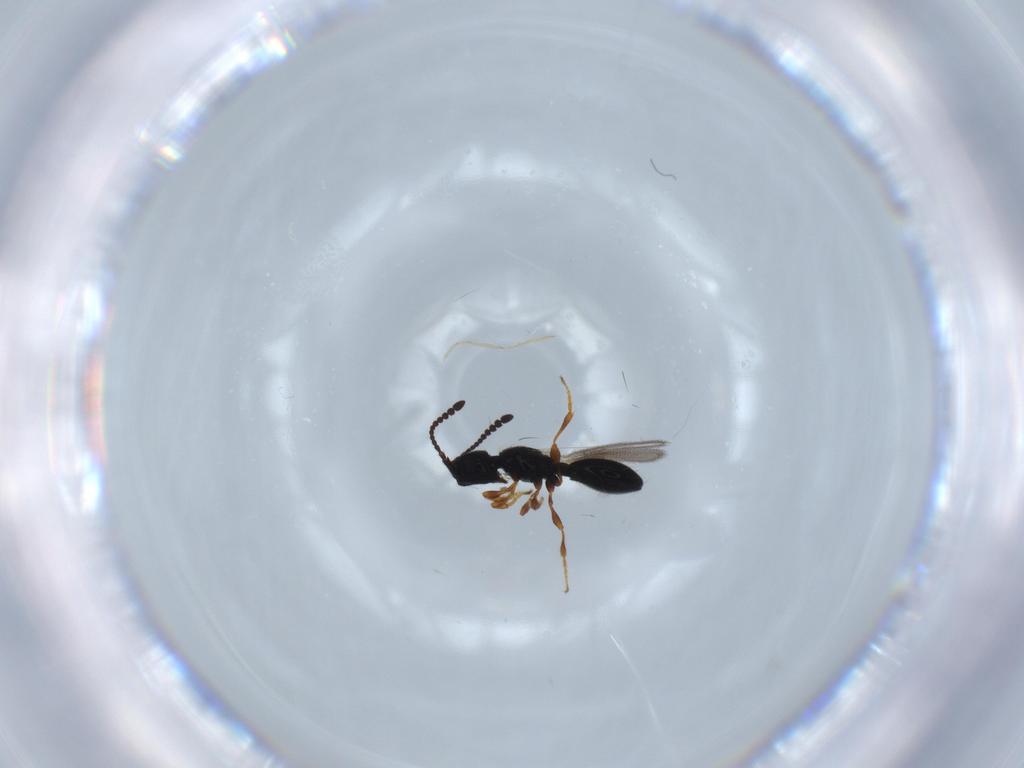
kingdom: Animalia
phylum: Arthropoda
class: Insecta
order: Hymenoptera
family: Diapriidae
